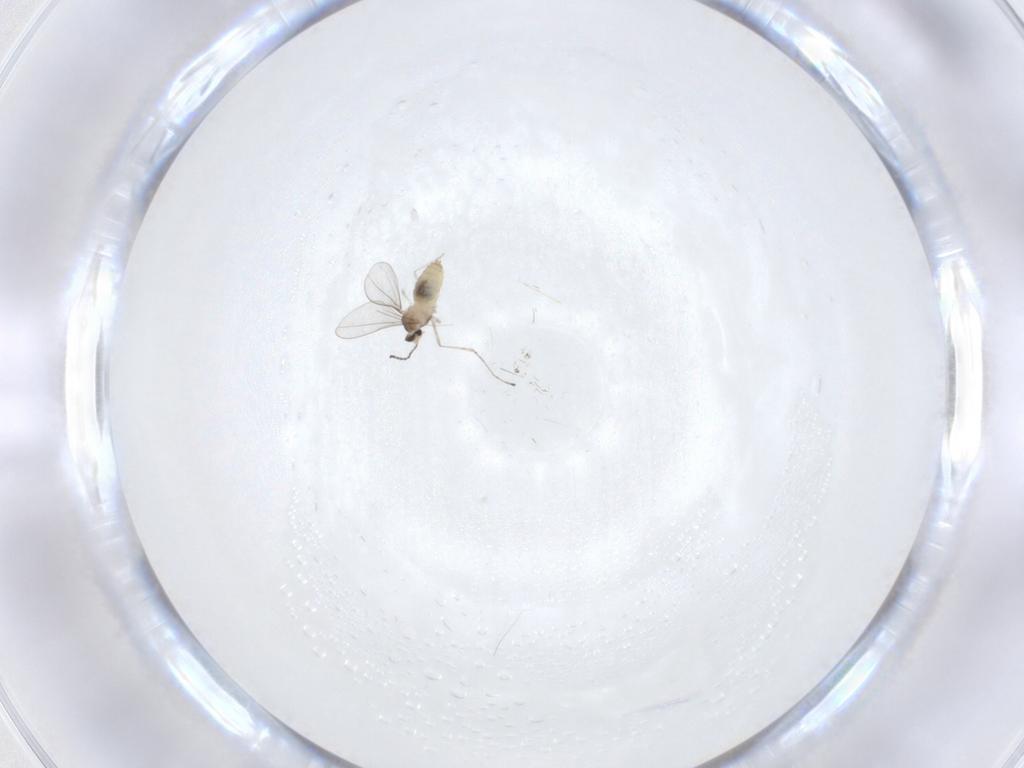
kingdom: Animalia
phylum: Arthropoda
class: Insecta
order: Diptera
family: Cecidomyiidae
